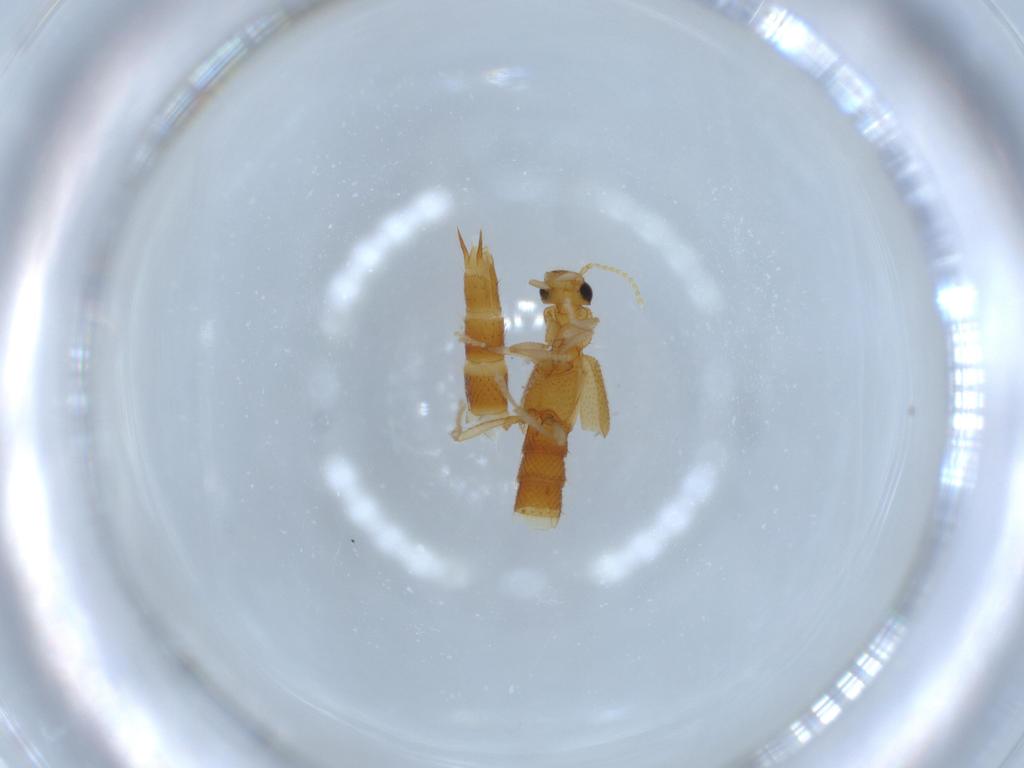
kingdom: Animalia
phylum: Arthropoda
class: Insecta
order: Coleoptera
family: Staphylinidae
